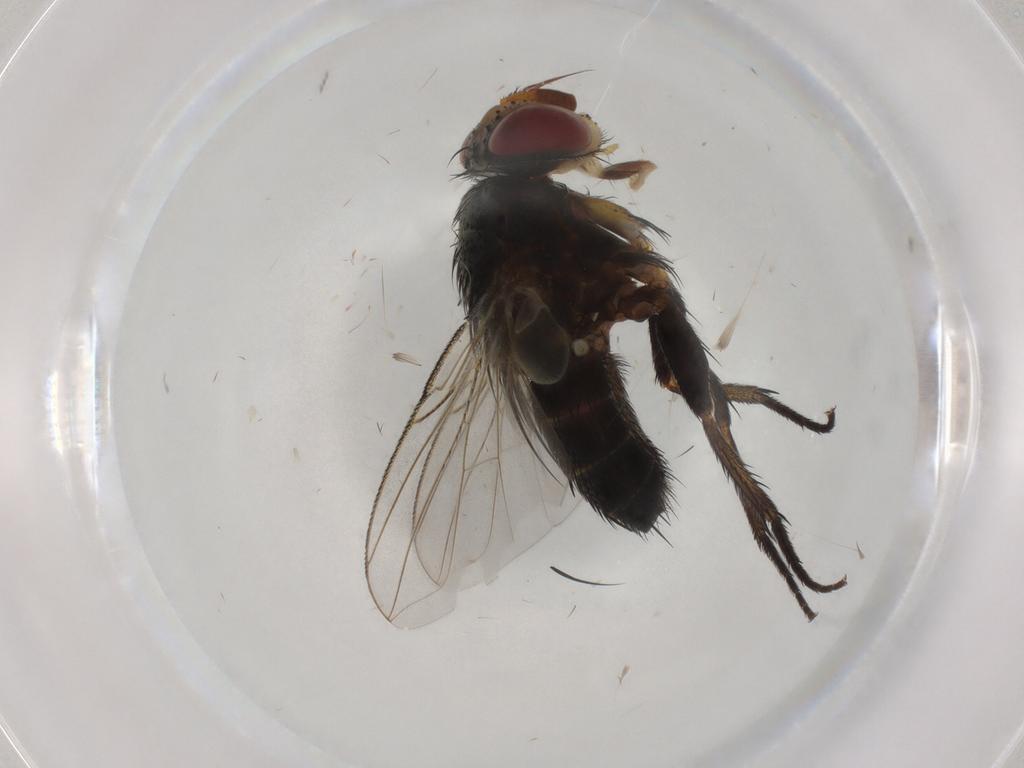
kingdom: Animalia
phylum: Arthropoda
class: Insecta
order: Diptera
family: Tachinidae
